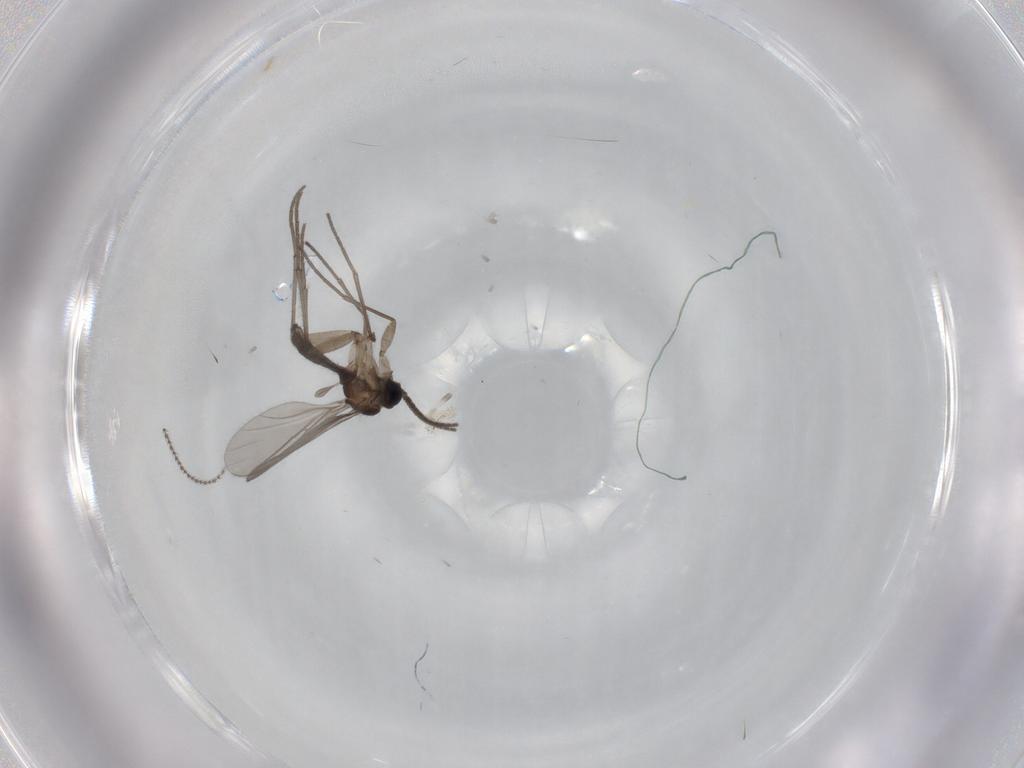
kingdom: Animalia
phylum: Arthropoda
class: Insecta
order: Diptera
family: Sciaridae
